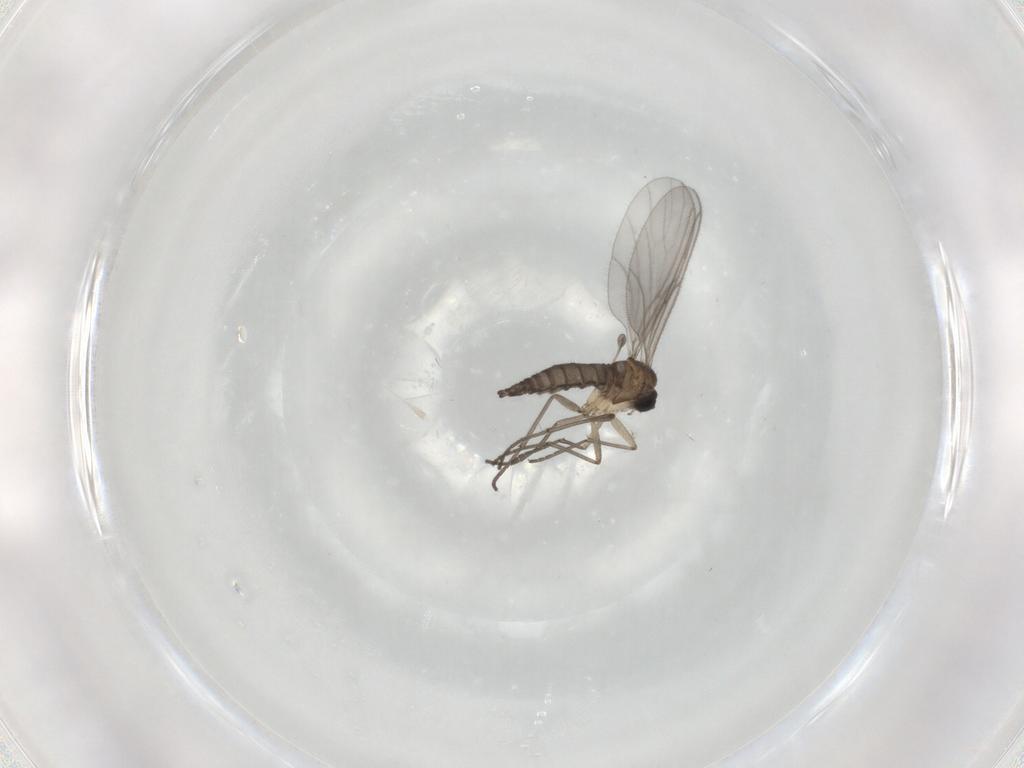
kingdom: Animalia
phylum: Arthropoda
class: Insecta
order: Diptera
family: Sciaridae
